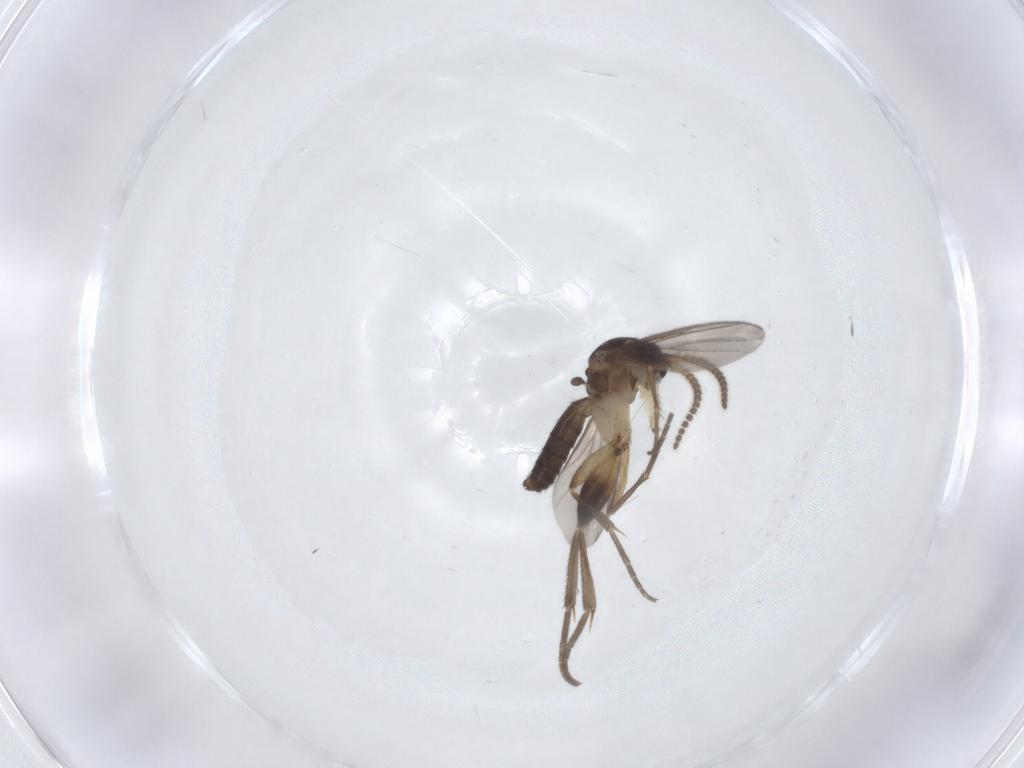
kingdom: Animalia
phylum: Arthropoda
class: Insecta
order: Diptera
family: Mycetophilidae
